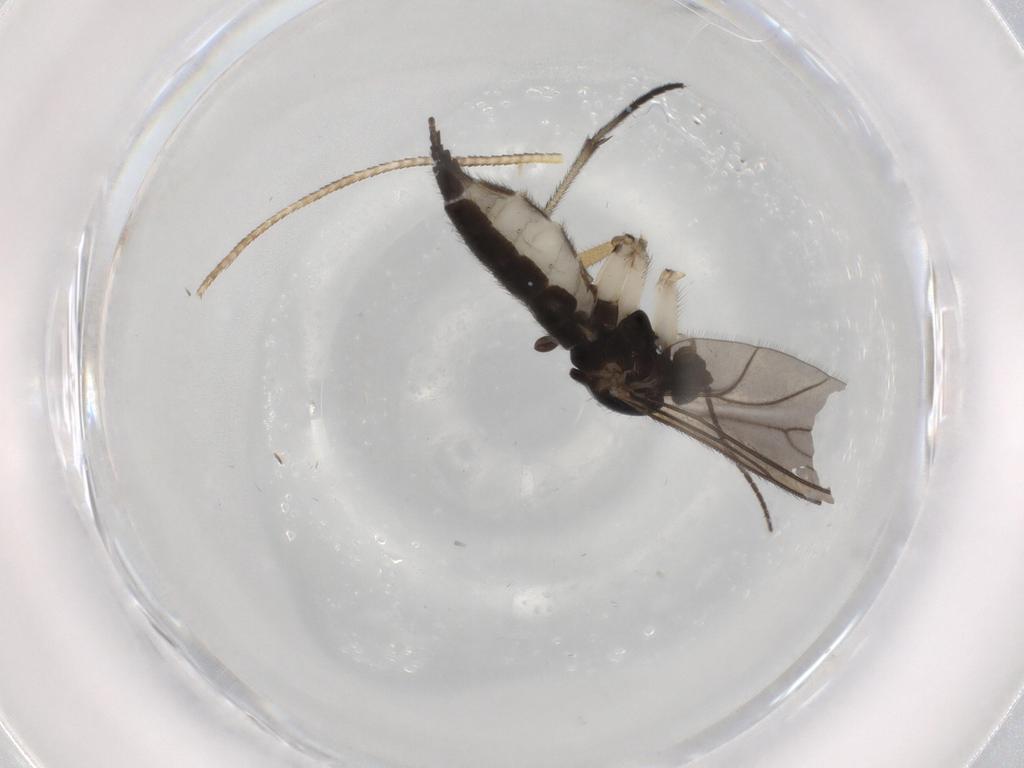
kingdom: Animalia
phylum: Arthropoda
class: Insecta
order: Diptera
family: Sciaridae
